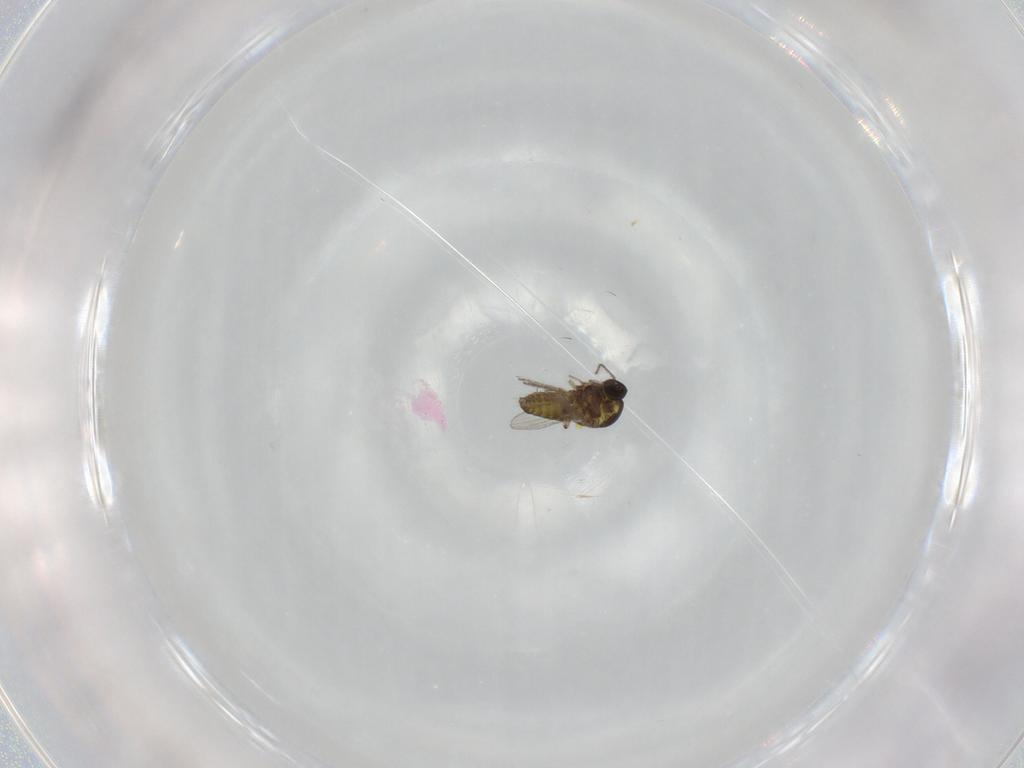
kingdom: Animalia
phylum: Arthropoda
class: Insecta
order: Diptera
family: Ceratopogonidae
